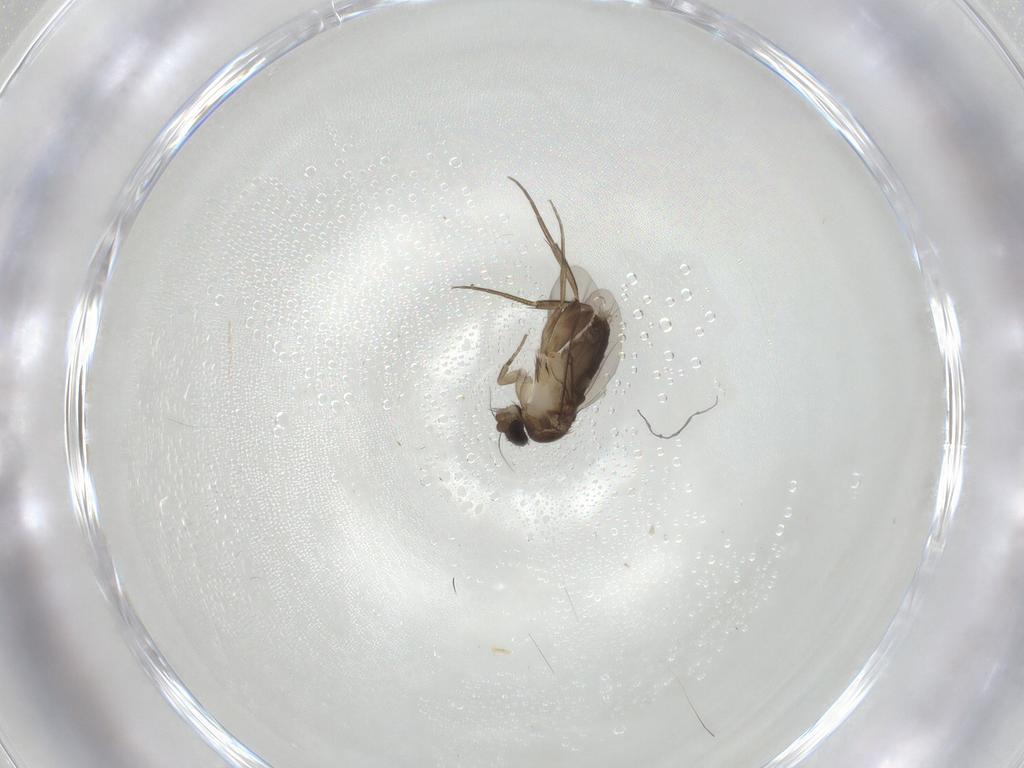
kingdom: Animalia
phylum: Arthropoda
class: Insecta
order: Diptera
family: Phoridae
